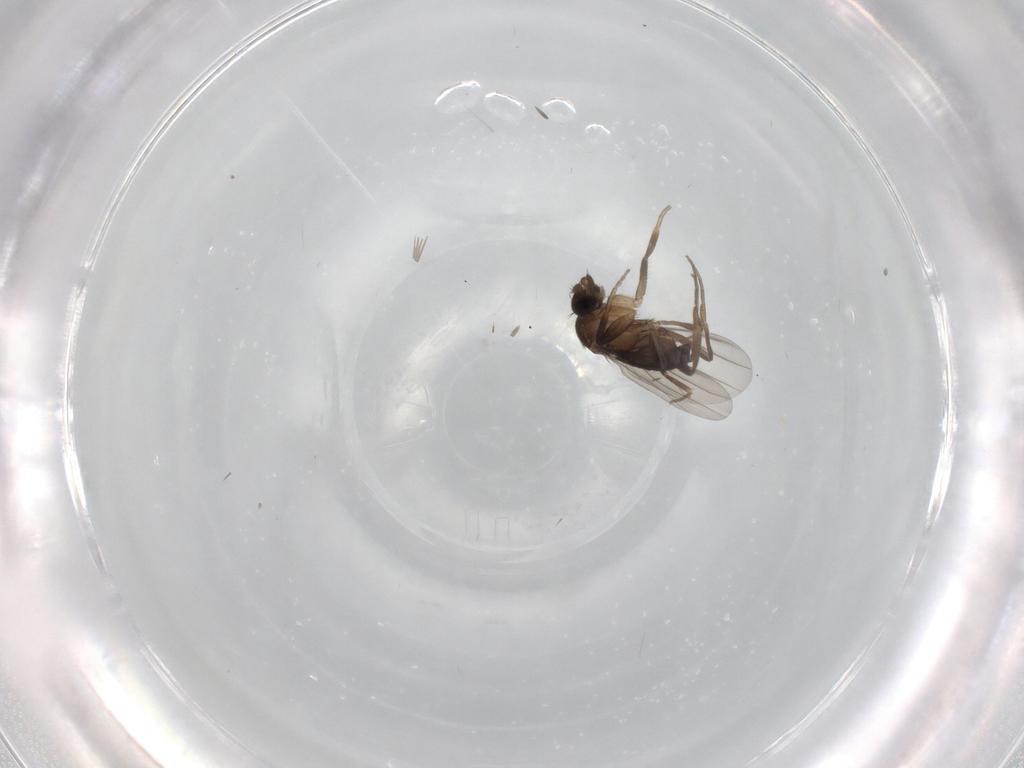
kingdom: Animalia
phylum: Arthropoda
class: Insecta
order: Diptera
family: Phoridae
